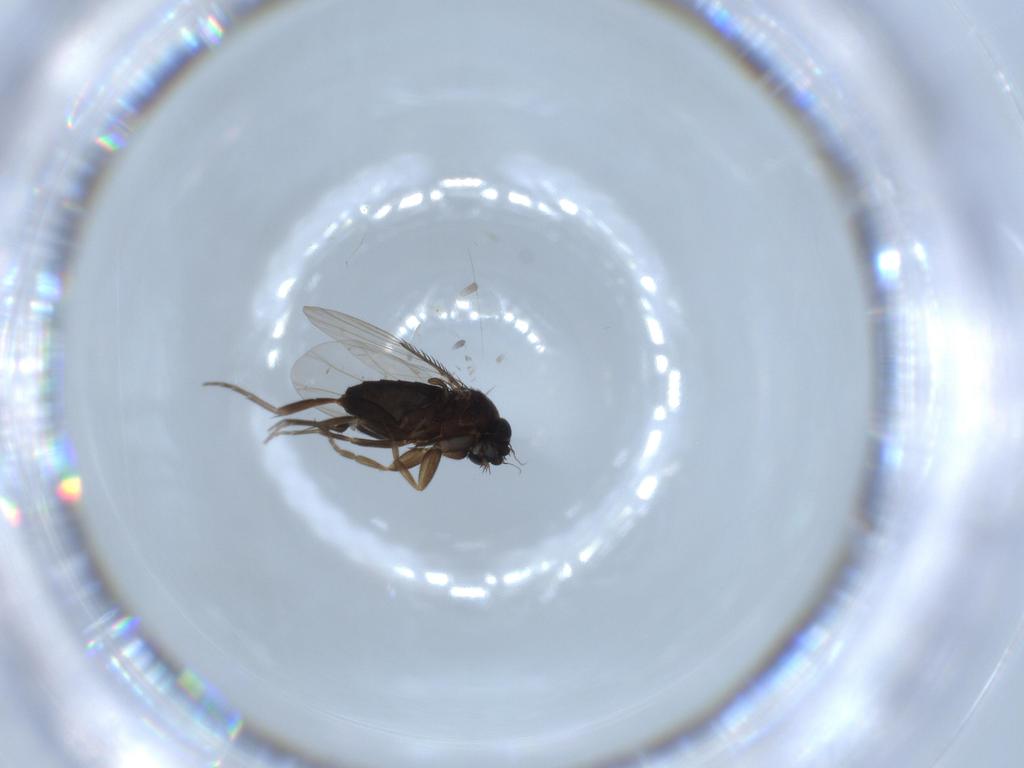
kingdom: Animalia
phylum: Arthropoda
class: Insecta
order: Diptera
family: Phoridae
